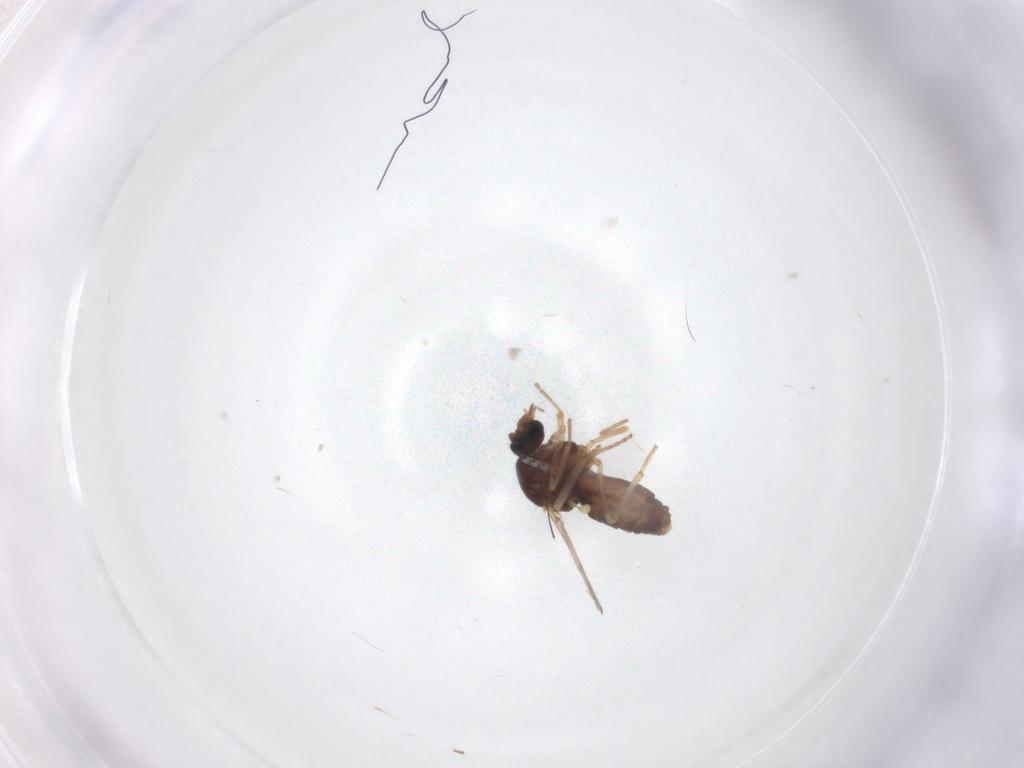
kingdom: Animalia
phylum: Arthropoda
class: Insecta
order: Diptera
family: Ceratopogonidae
